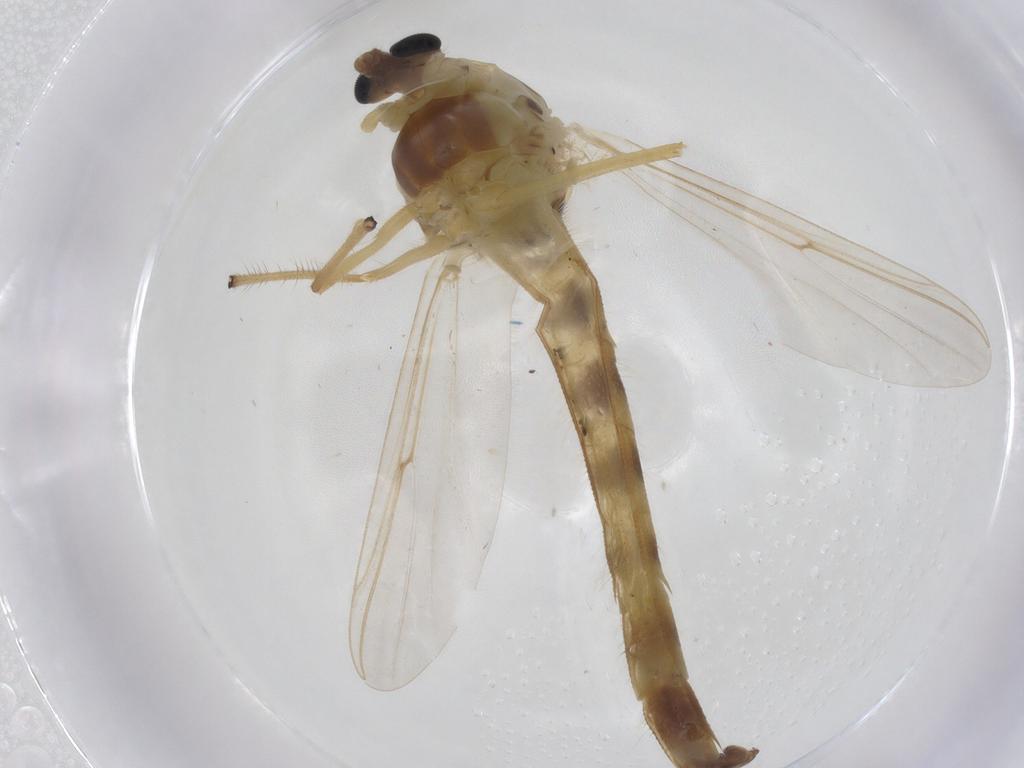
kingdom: Animalia
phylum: Arthropoda
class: Insecta
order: Diptera
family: Chironomidae
